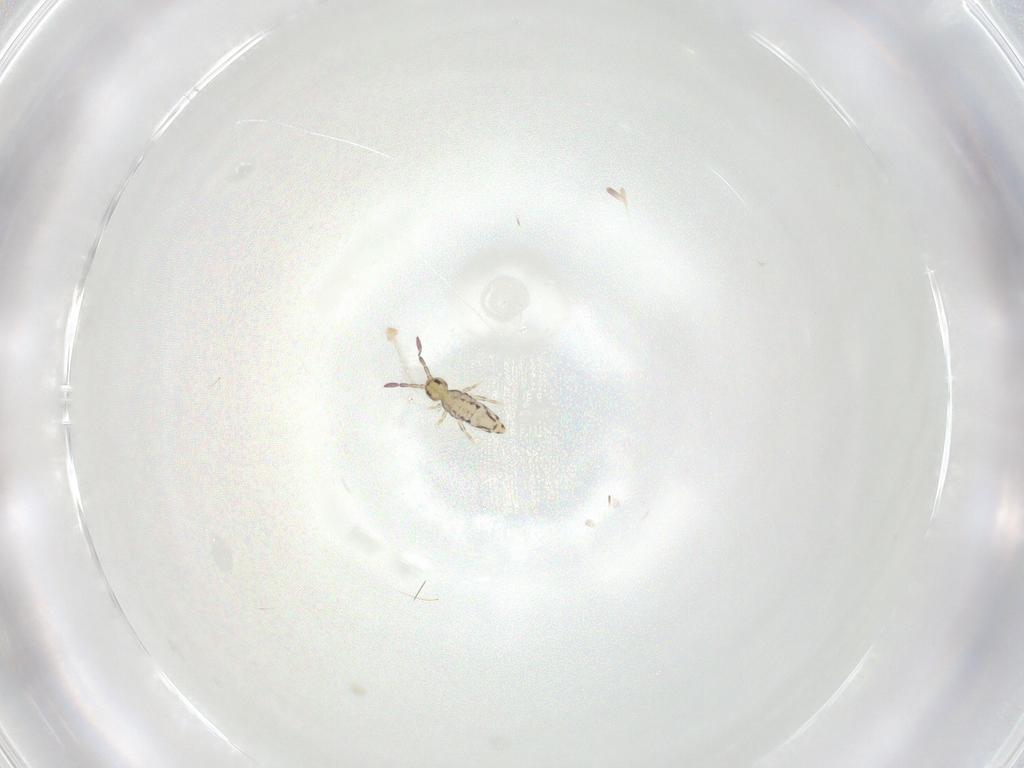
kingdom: Animalia
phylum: Arthropoda
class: Collembola
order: Entomobryomorpha
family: Entomobryidae
